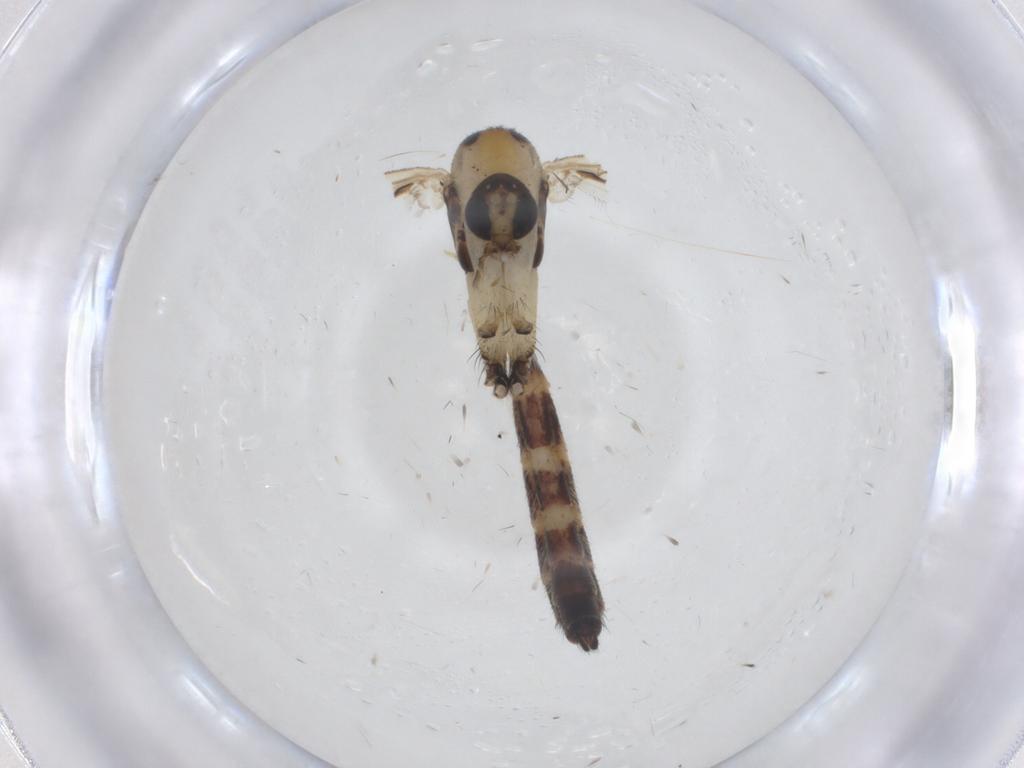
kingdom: Animalia
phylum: Arthropoda
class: Insecta
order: Diptera
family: Mycetophilidae
